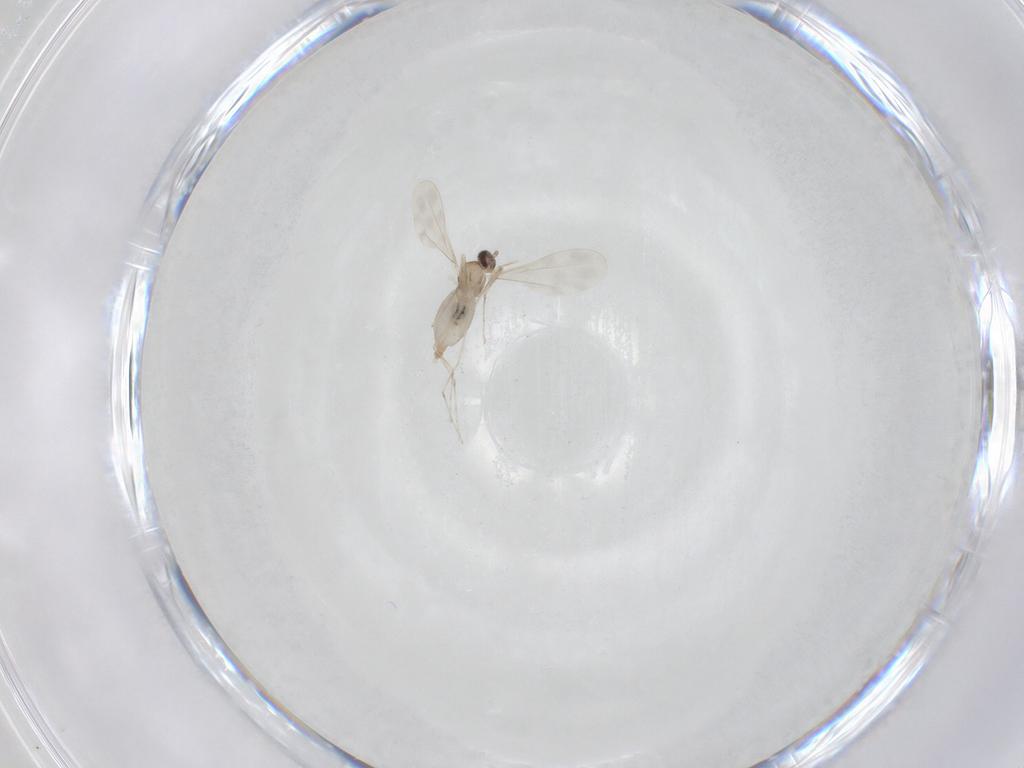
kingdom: Animalia
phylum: Arthropoda
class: Insecta
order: Diptera
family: Cecidomyiidae
